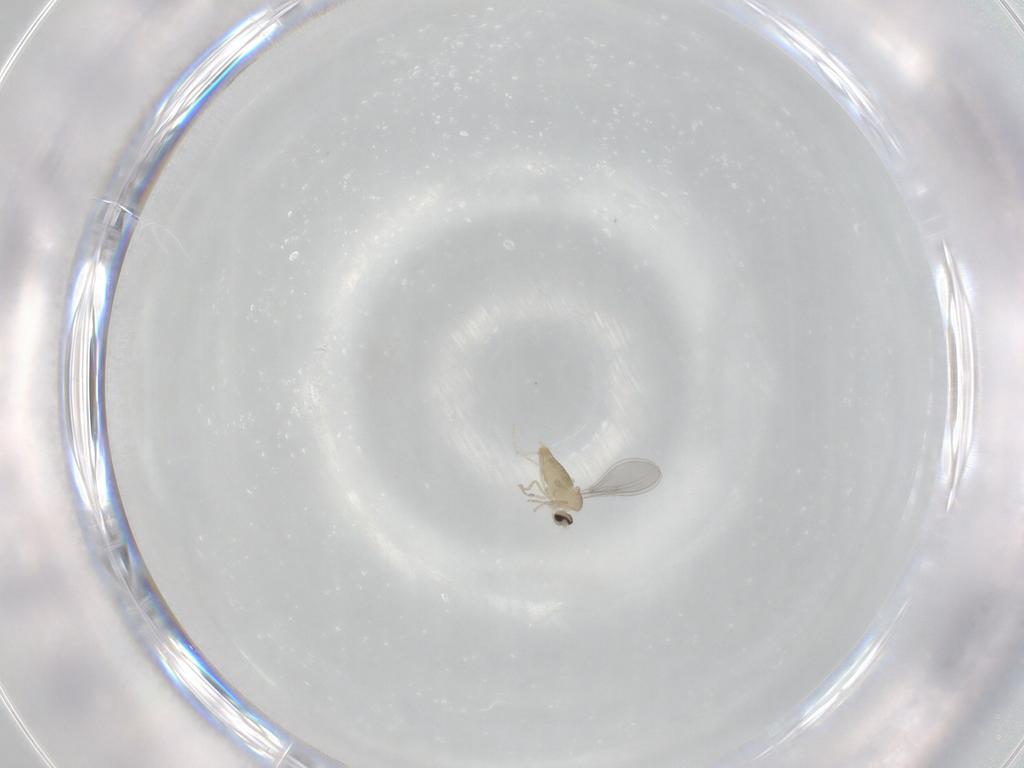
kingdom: Animalia
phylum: Arthropoda
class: Insecta
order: Diptera
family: Cecidomyiidae
